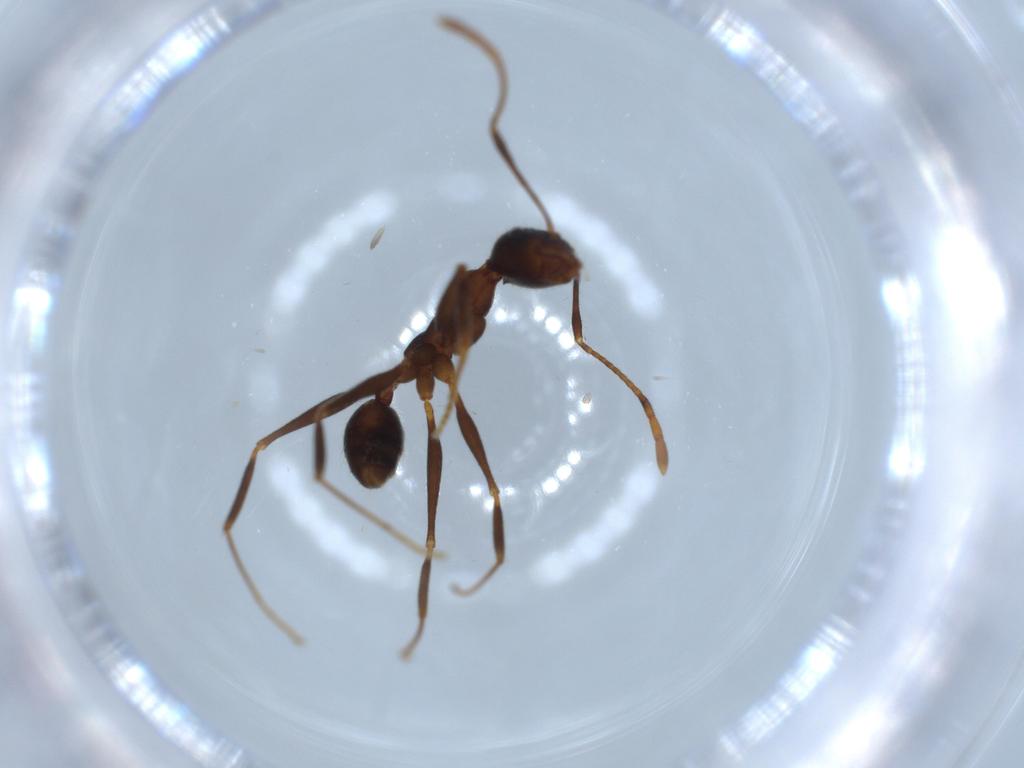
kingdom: Animalia
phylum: Arthropoda
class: Insecta
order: Hymenoptera
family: Formicidae
